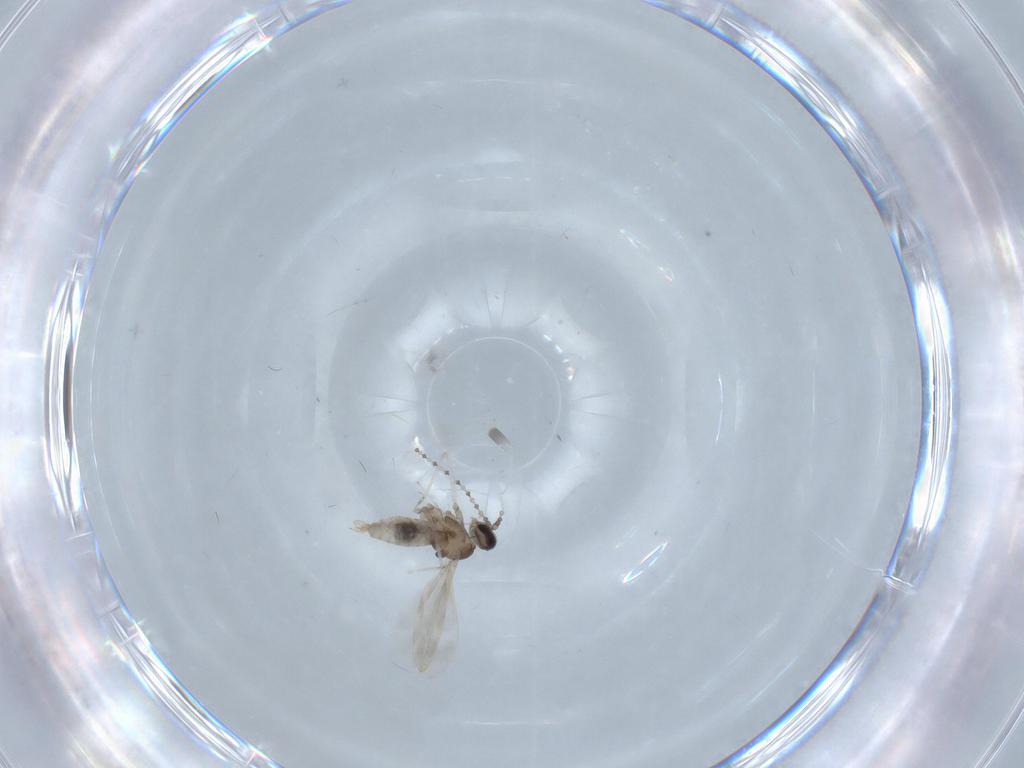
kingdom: Animalia
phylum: Arthropoda
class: Insecta
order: Diptera
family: Cecidomyiidae
